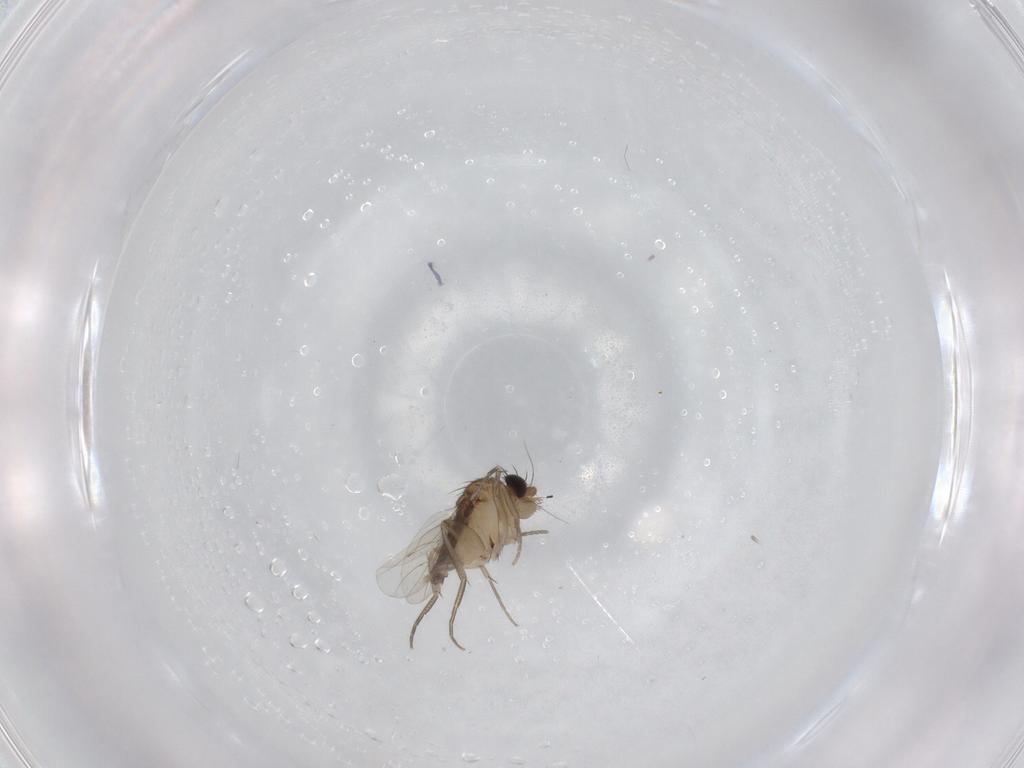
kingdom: Animalia
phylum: Arthropoda
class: Insecta
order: Diptera
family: Phoridae
